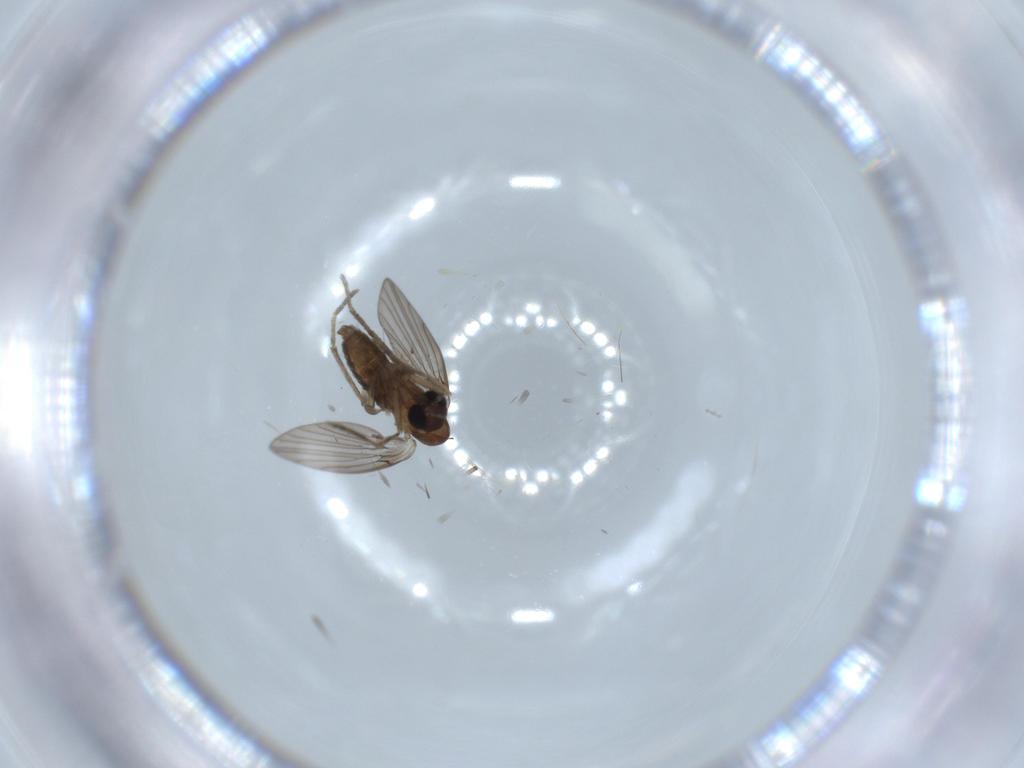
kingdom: Animalia
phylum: Arthropoda
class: Insecta
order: Diptera
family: Psychodidae
